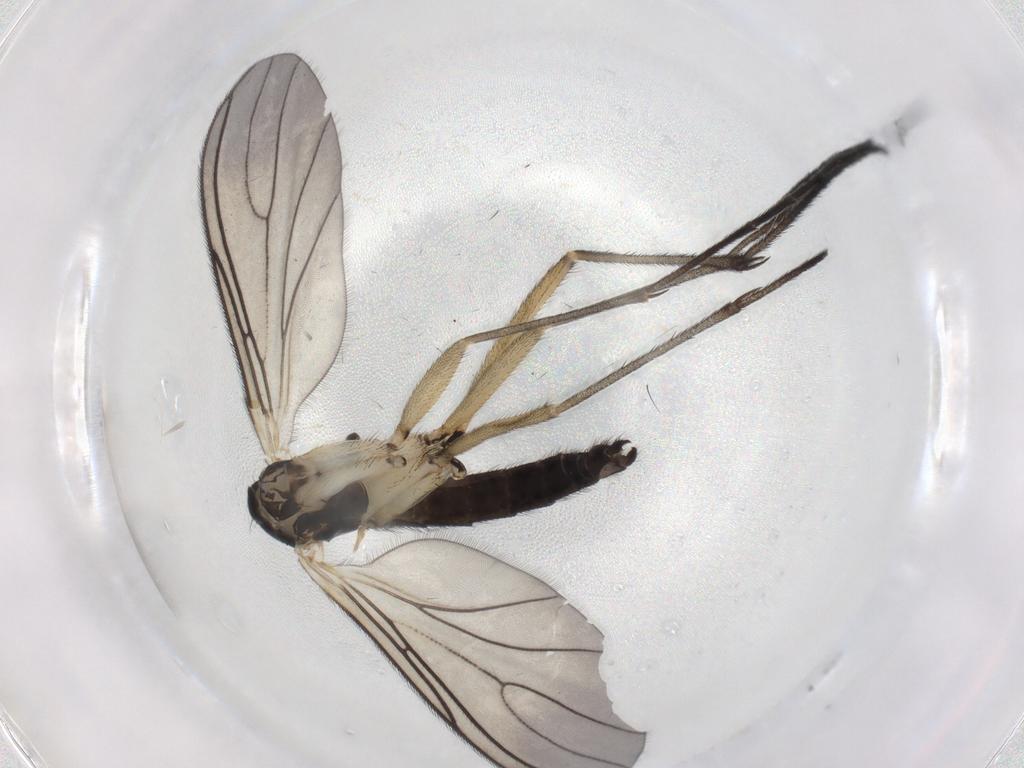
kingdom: Animalia
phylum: Arthropoda
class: Insecta
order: Diptera
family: Sciaridae
